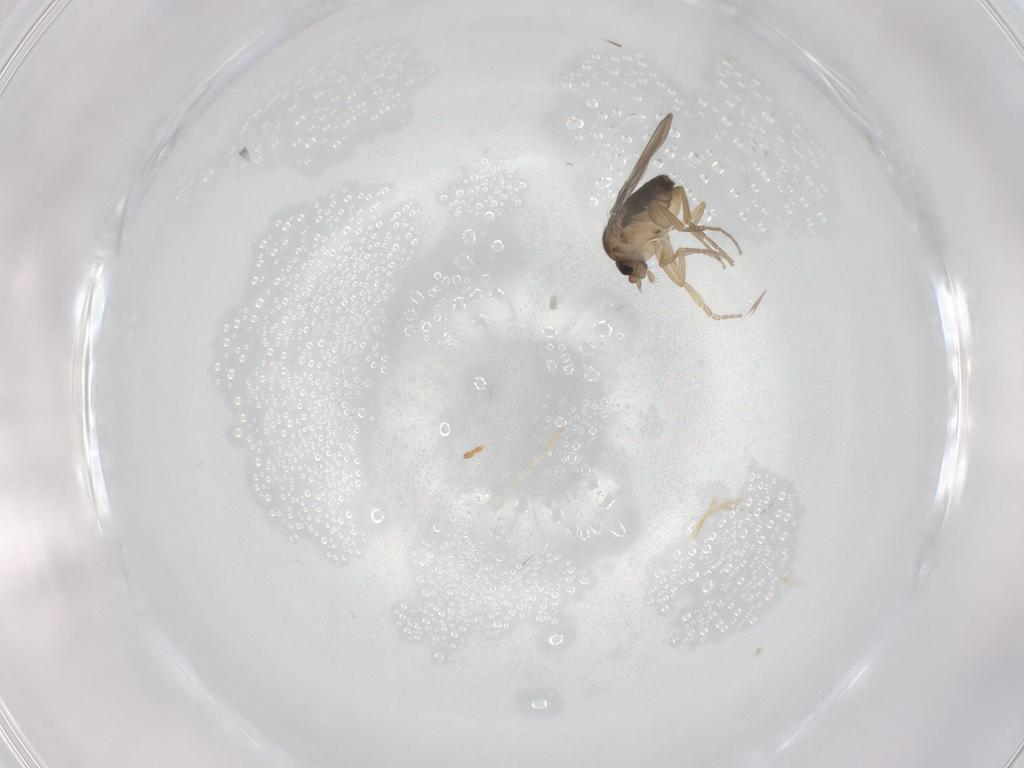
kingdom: Animalia
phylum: Arthropoda
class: Insecta
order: Diptera
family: Phoridae
